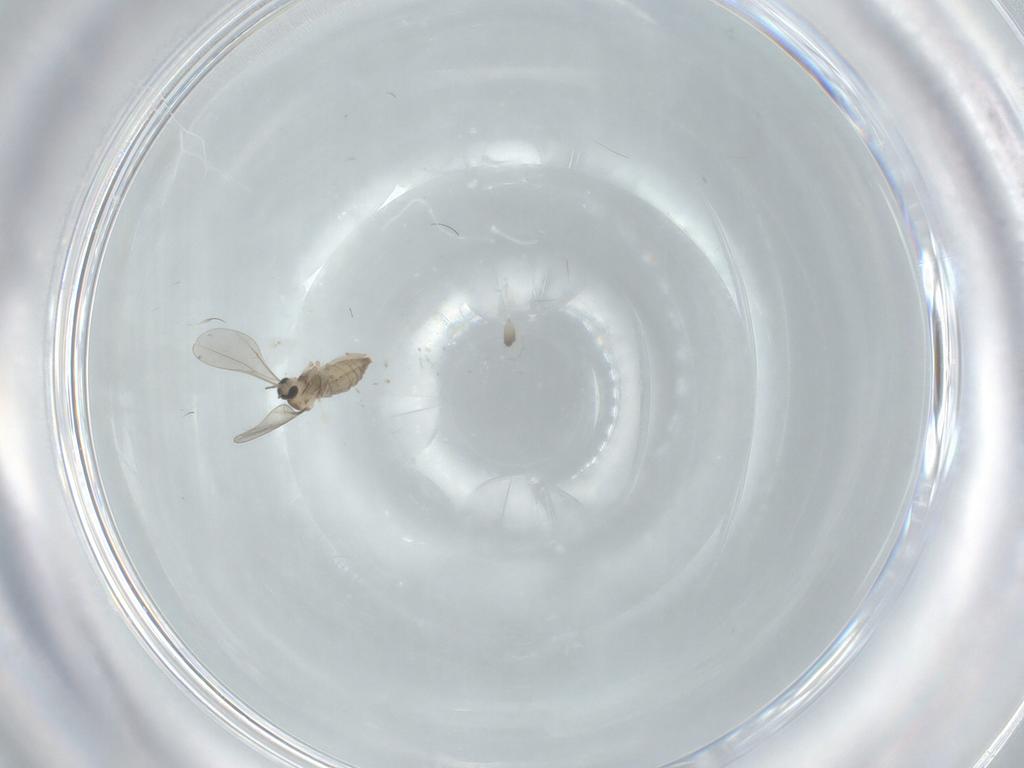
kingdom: Animalia
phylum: Arthropoda
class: Insecta
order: Diptera
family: Cecidomyiidae
